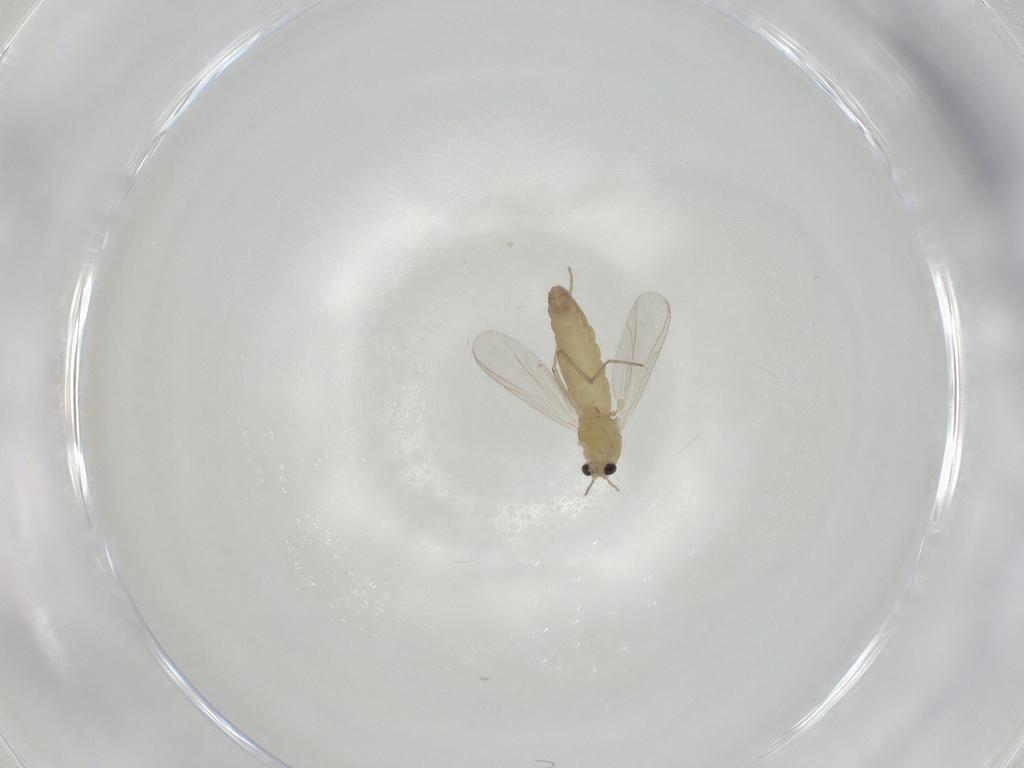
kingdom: Animalia
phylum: Arthropoda
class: Insecta
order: Diptera
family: Chironomidae
